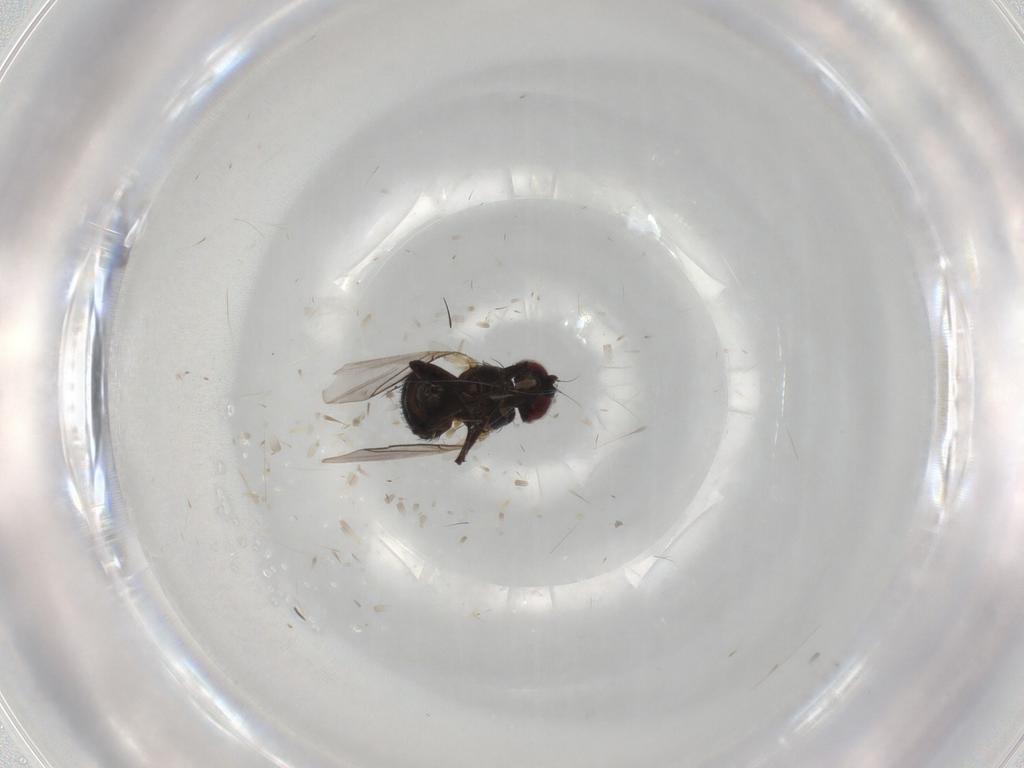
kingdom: Animalia
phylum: Arthropoda
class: Insecta
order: Diptera
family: Agromyzidae
